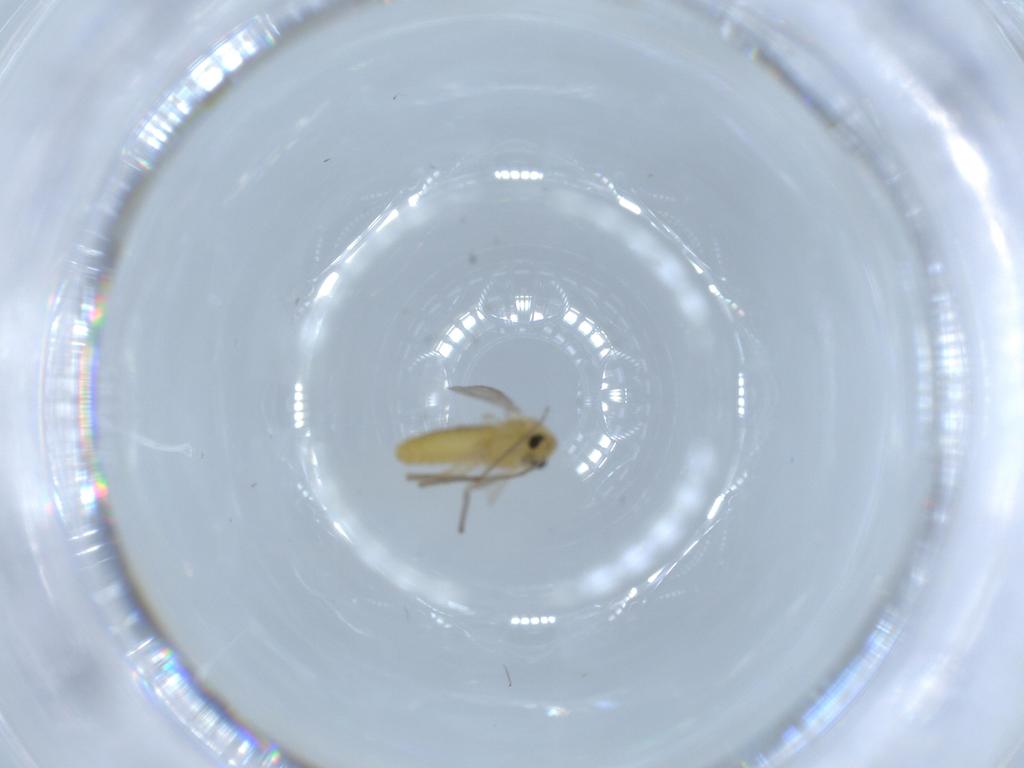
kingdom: Animalia
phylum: Arthropoda
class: Insecta
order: Diptera
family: Chironomidae
